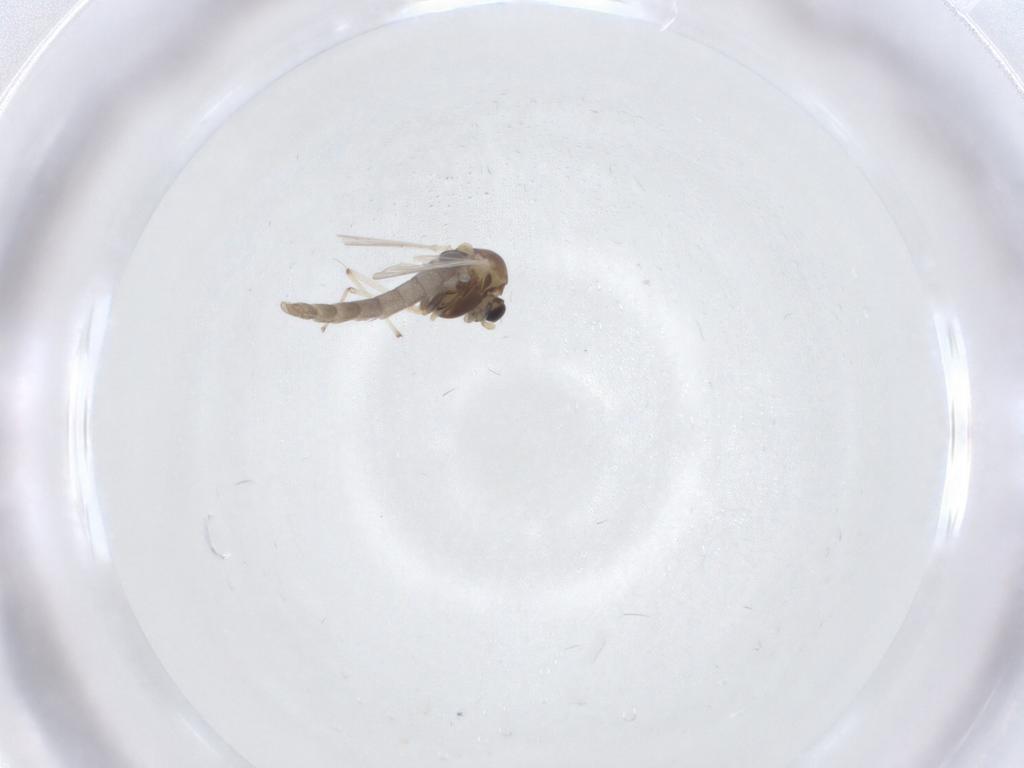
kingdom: Animalia
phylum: Arthropoda
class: Insecta
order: Diptera
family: Chironomidae
